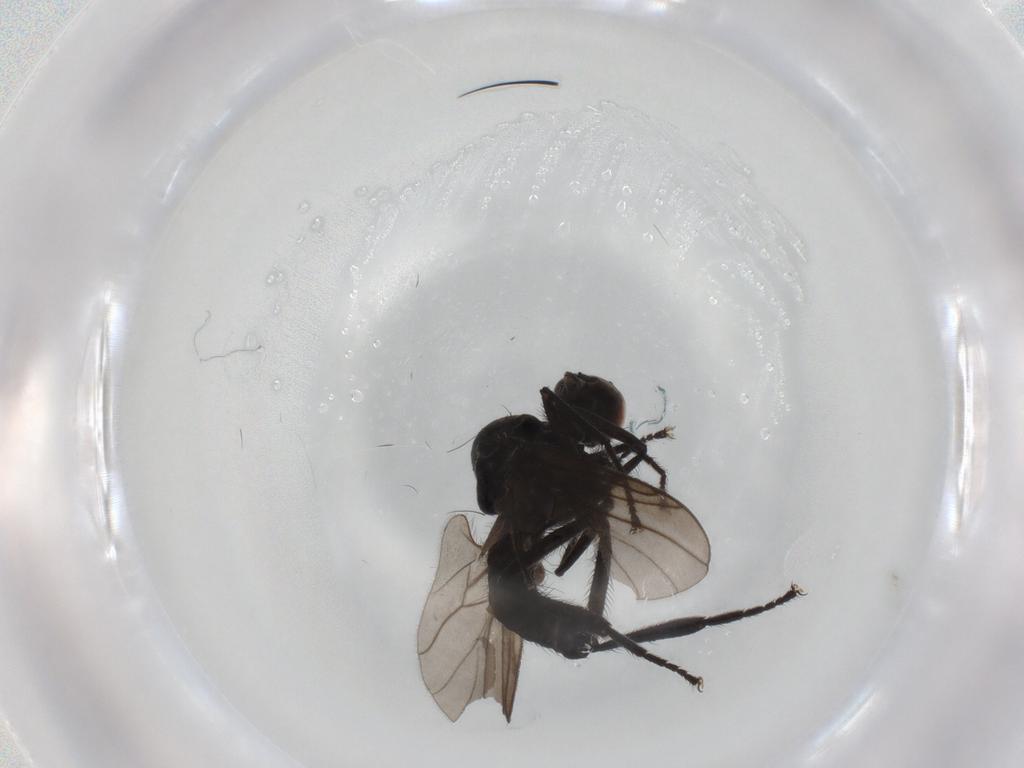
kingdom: Animalia
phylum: Arthropoda
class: Insecta
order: Diptera
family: Hybotidae
